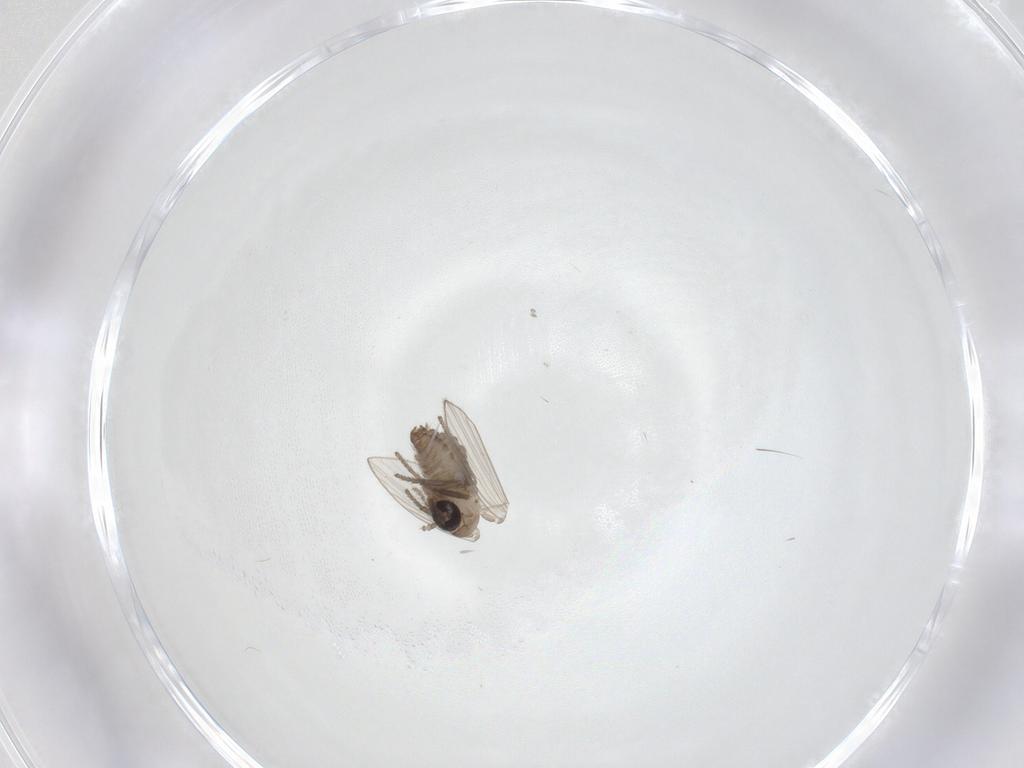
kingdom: Animalia
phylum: Arthropoda
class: Insecta
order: Diptera
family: Psychodidae
